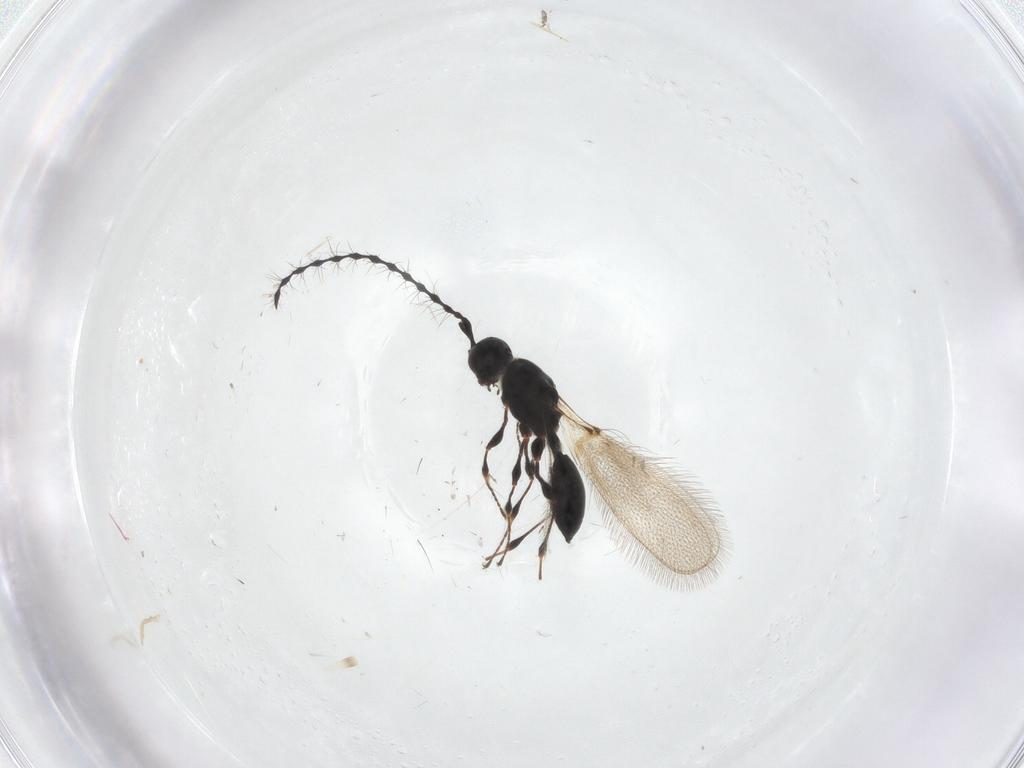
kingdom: Animalia
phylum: Arthropoda
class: Insecta
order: Hymenoptera
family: Diapriidae
